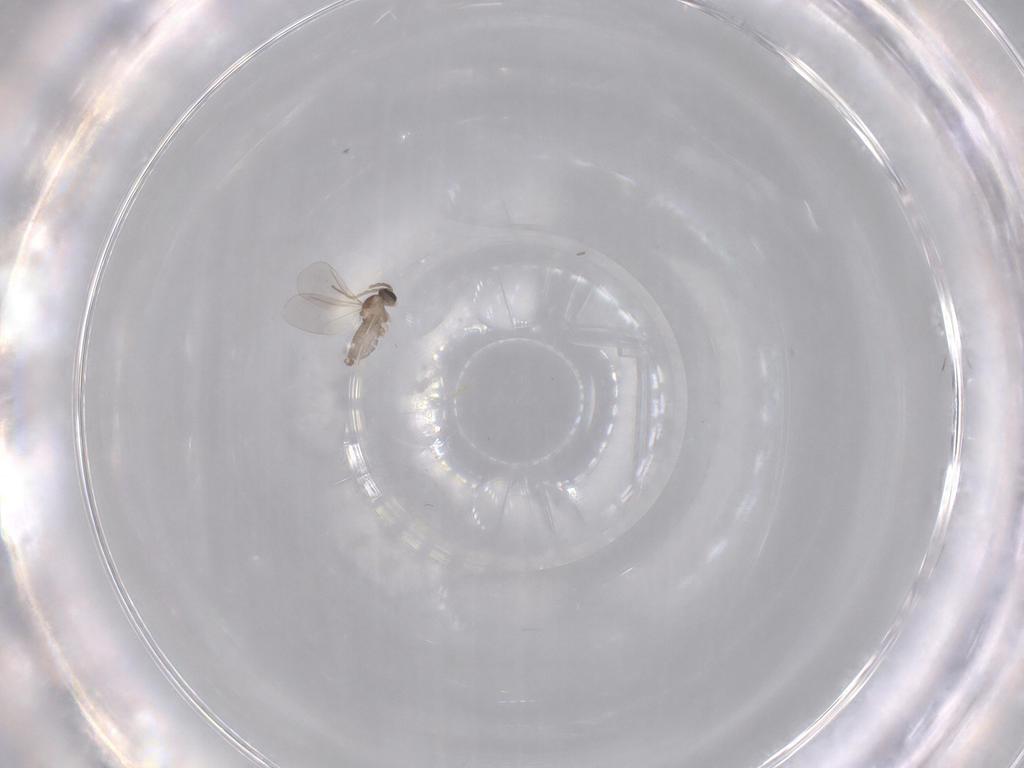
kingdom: Animalia
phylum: Arthropoda
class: Insecta
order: Diptera
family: Cecidomyiidae
